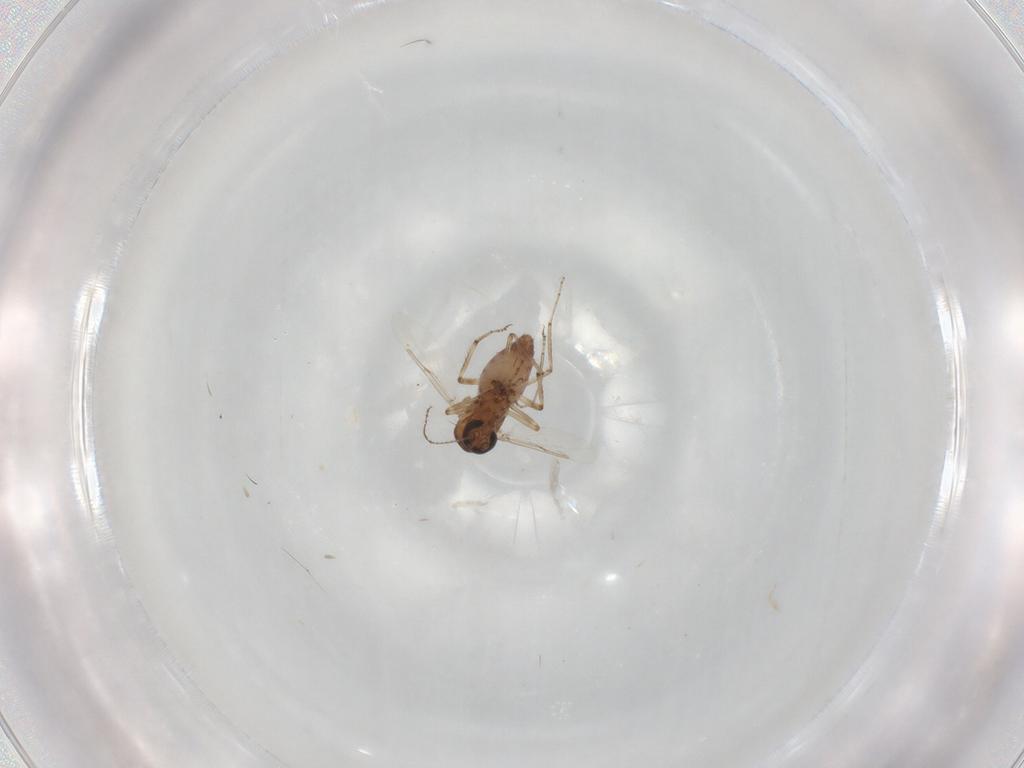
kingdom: Animalia
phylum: Arthropoda
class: Insecta
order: Diptera
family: Ceratopogonidae
